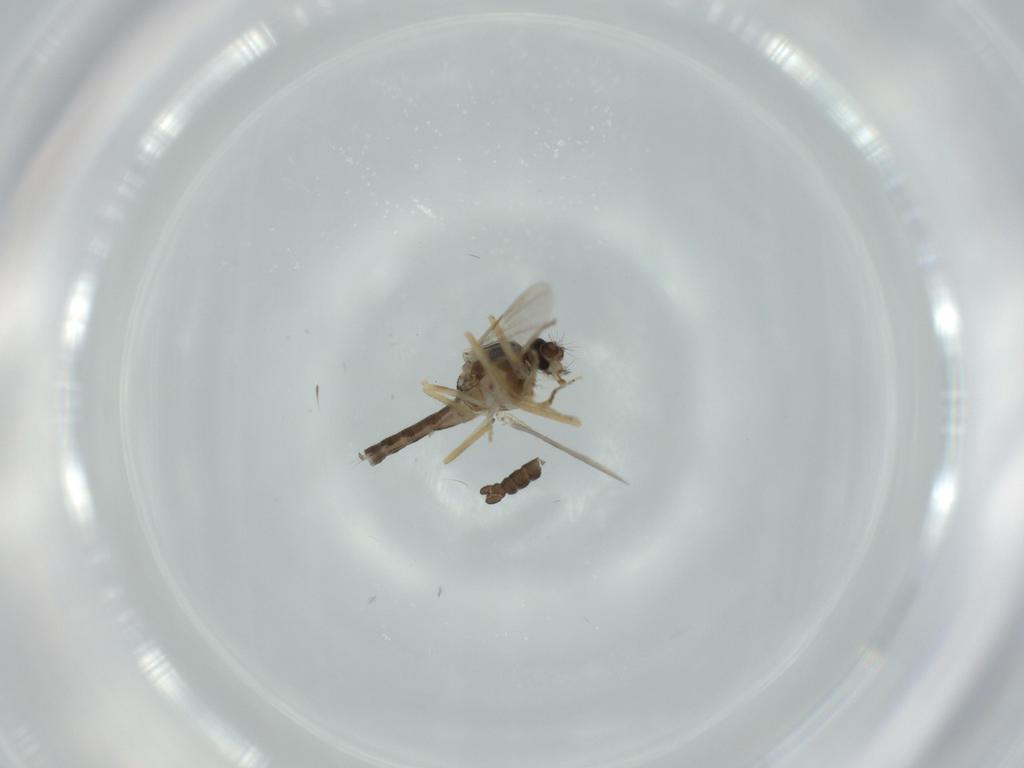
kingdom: Animalia
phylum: Arthropoda
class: Insecta
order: Diptera
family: Ceratopogonidae
